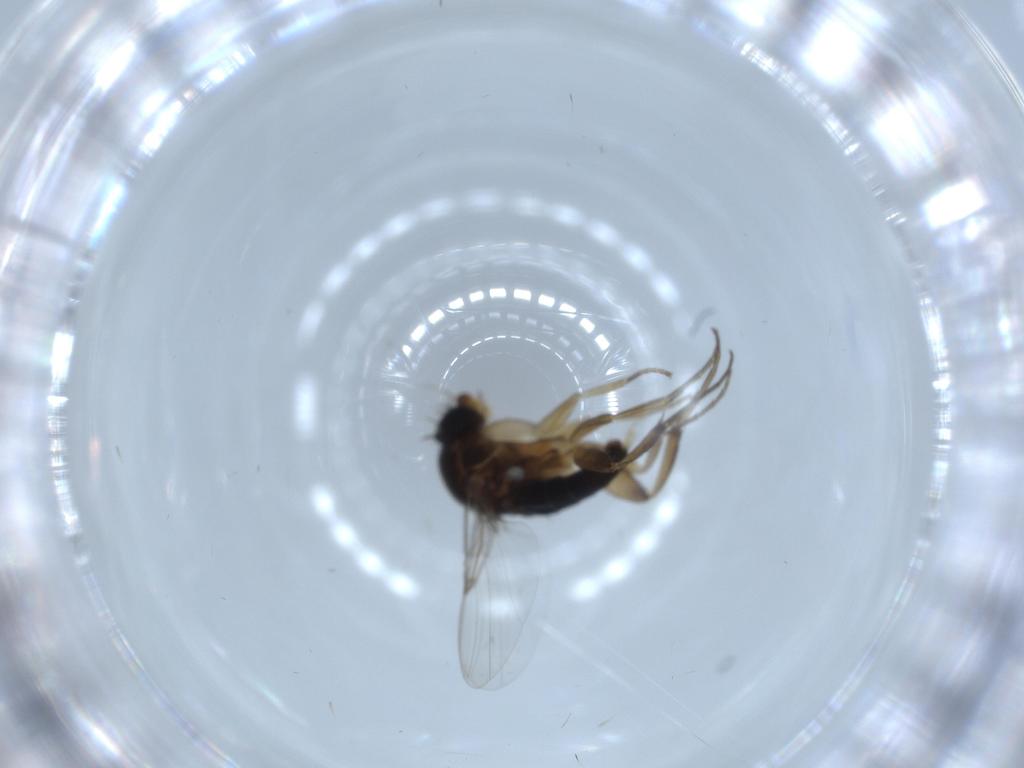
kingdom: Animalia
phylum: Arthropoda
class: Insecta
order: Diptera
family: Phoridae
